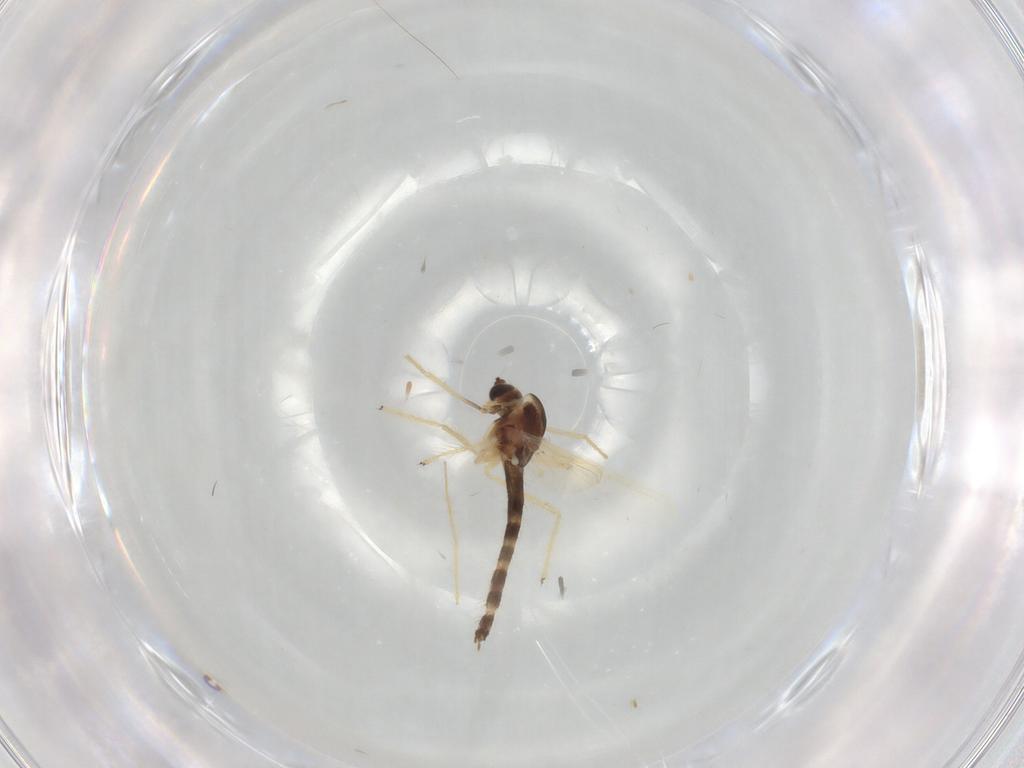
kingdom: Animalia
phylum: Arthropoda
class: Insecta
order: Diptera
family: Chironomidae
